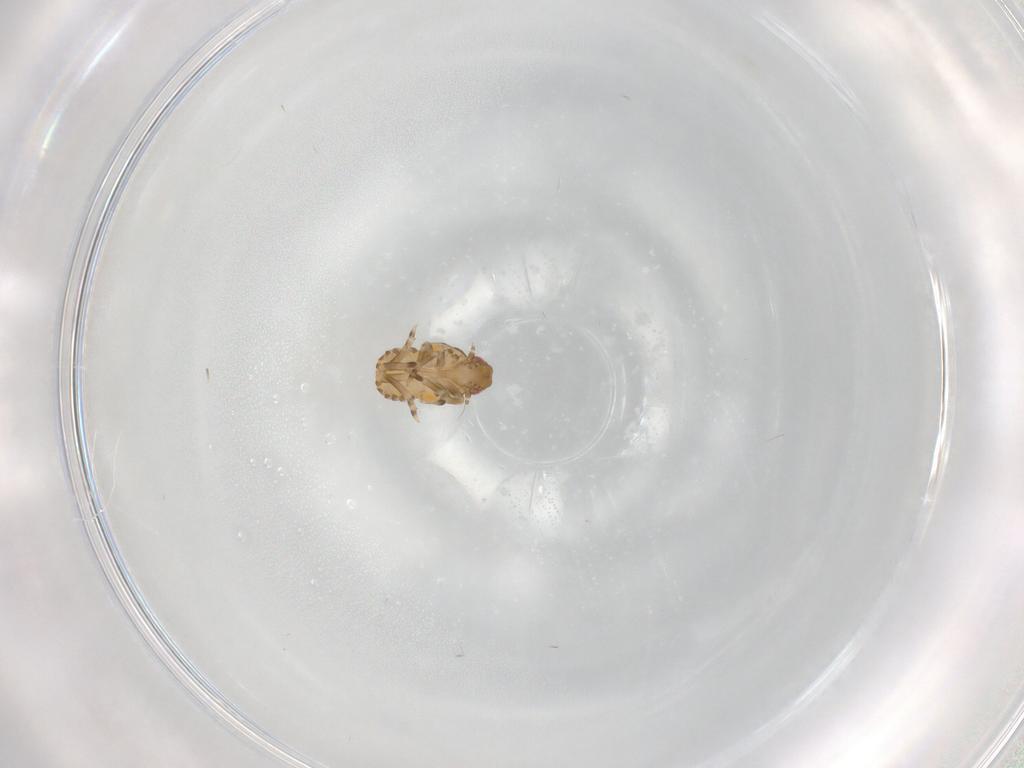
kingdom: Animalia
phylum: Arthropoda
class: Insecta
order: Hemiptera
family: Flatidae
